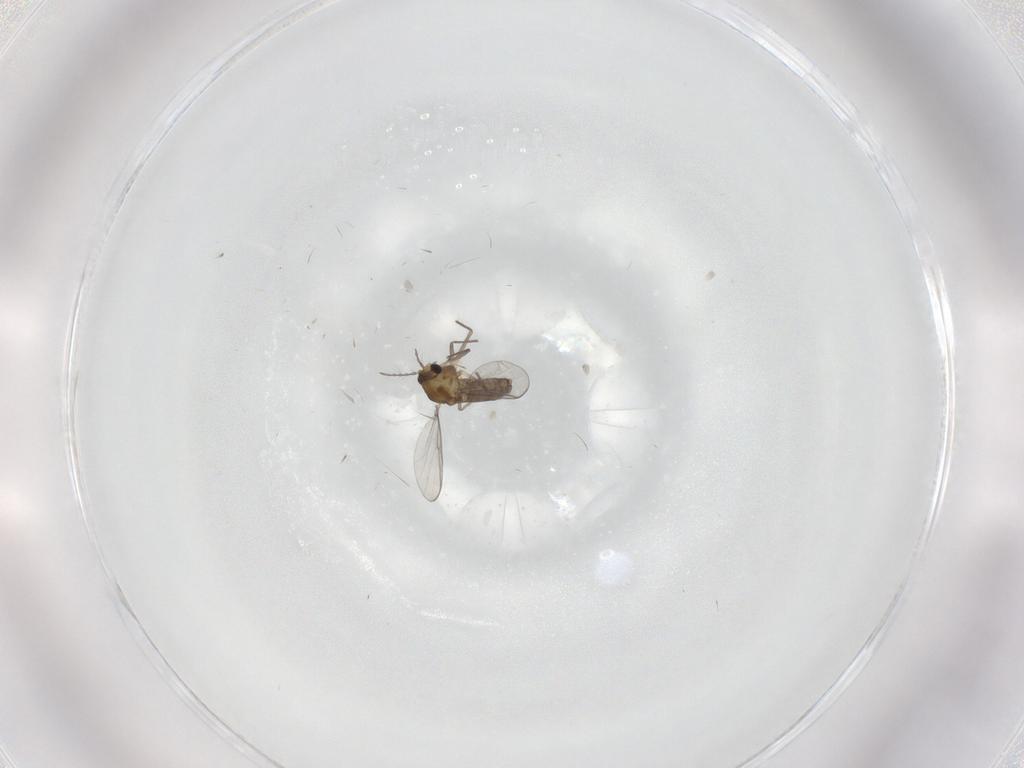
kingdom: Animalia
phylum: Arthropoda
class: Insecta
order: Diptera
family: Chironomidae
